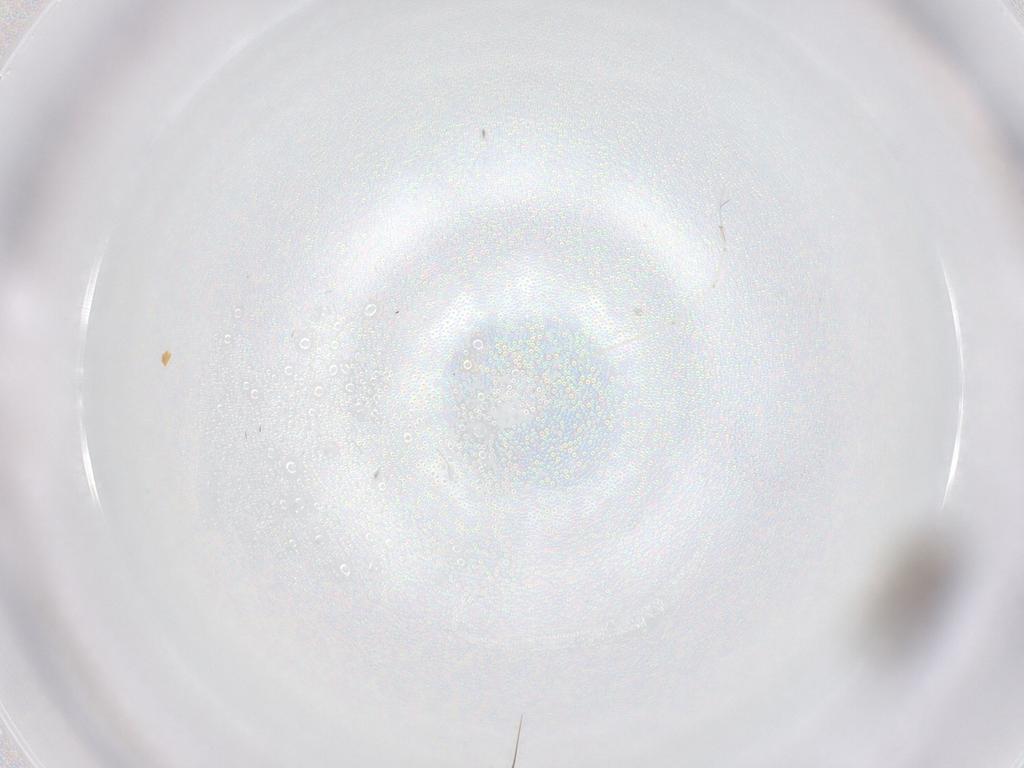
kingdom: Animalia
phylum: Arthropoda
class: Insecta
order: Diptera
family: Chironomidae
